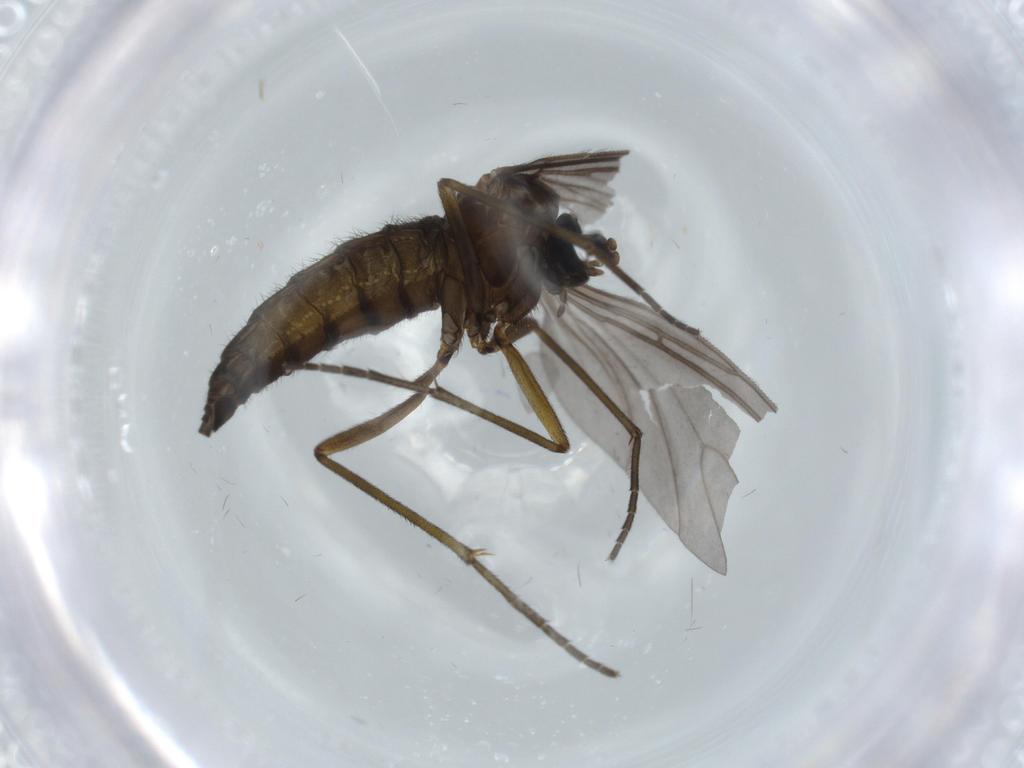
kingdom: Animalia
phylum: Arthropoda
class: Insecta
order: Diptera
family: Sciaridae
